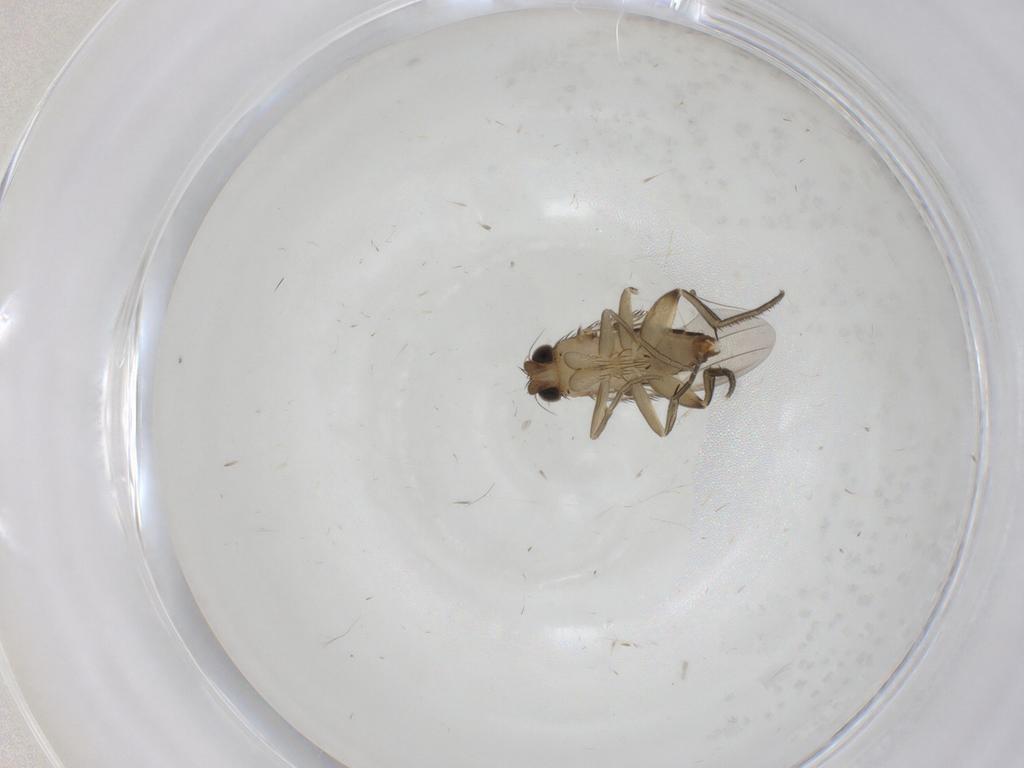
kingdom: Animalia
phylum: Arthropoda
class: Insecta
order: Diptera
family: Phoridae
